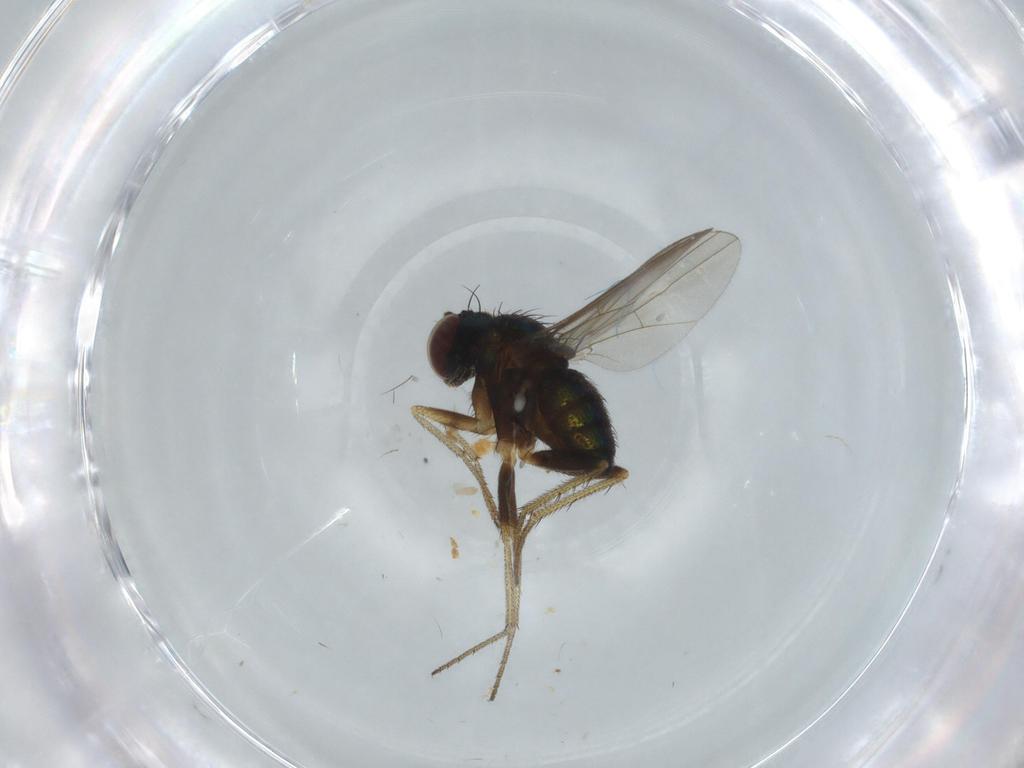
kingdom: Animalia
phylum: Arthropoda
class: Insecta
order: Diptera
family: Dolichopodidae
